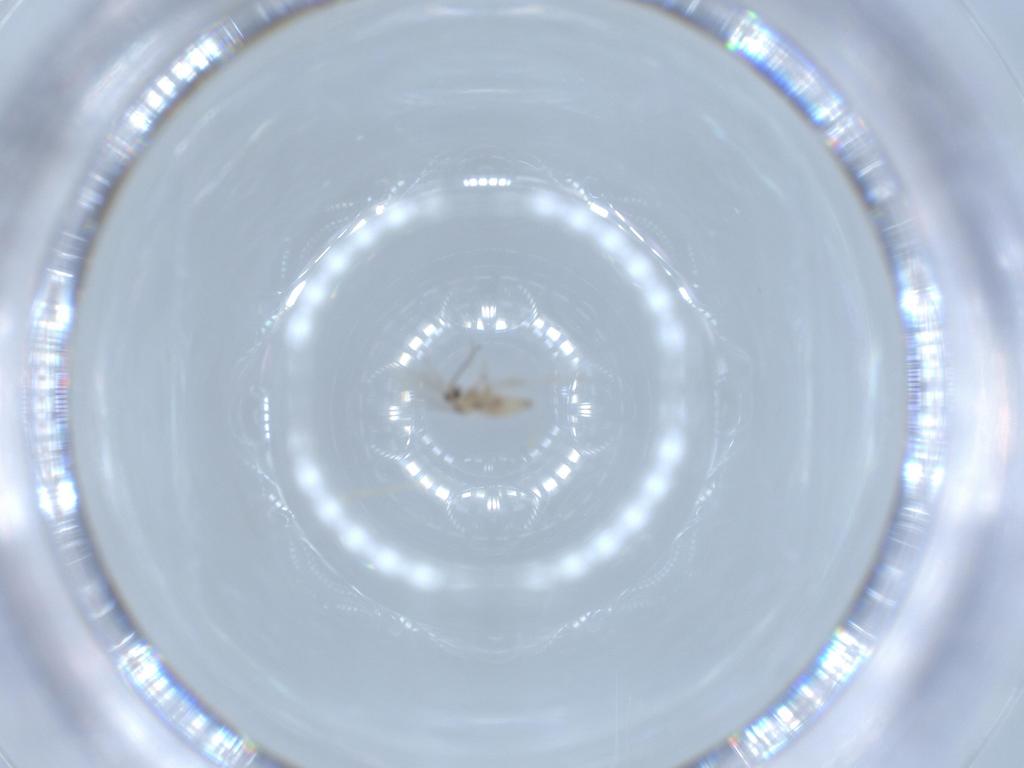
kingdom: Animalia
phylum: Arthropoda
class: Insecta
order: Diptera
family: Cecidomyiidae
